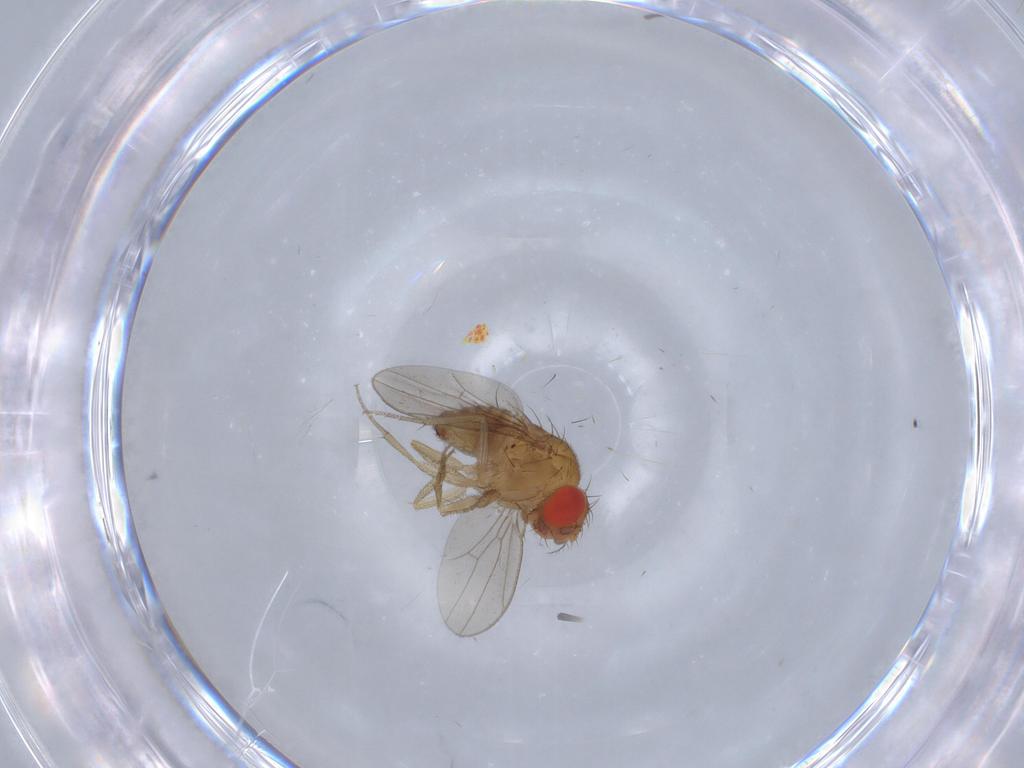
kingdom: Animalia
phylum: Arthropoda
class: Insecta
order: Diptera
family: Drosophilidae
